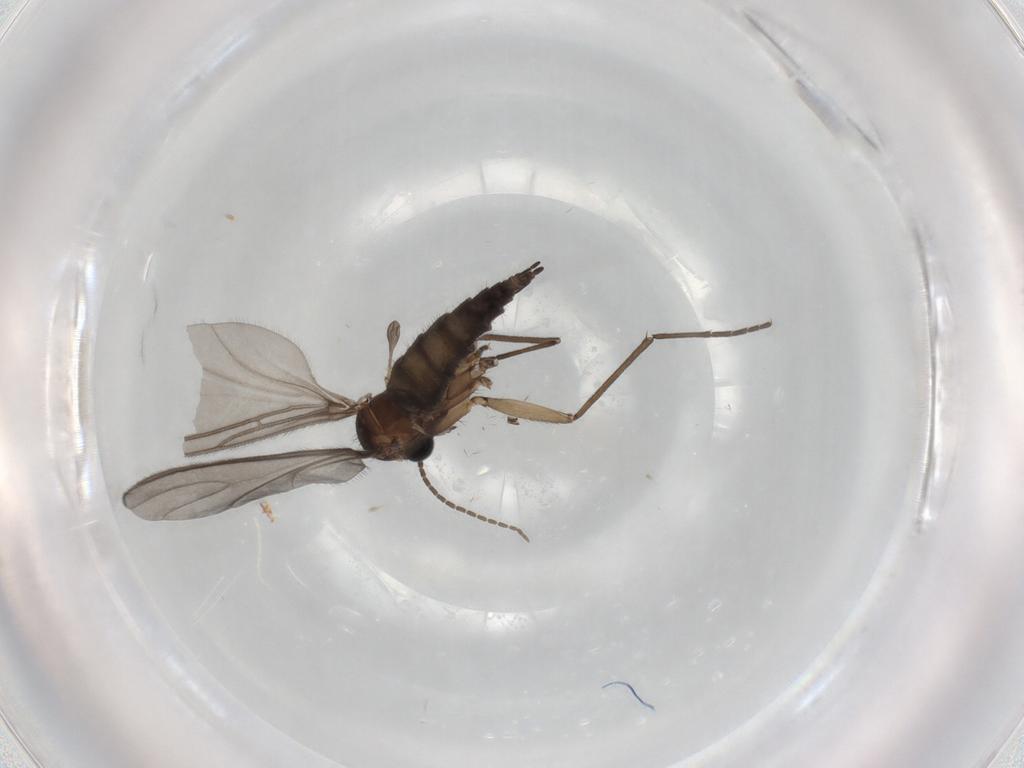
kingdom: Animalia
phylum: Arthropoda
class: Insecta
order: Diptera
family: Sciaridae
